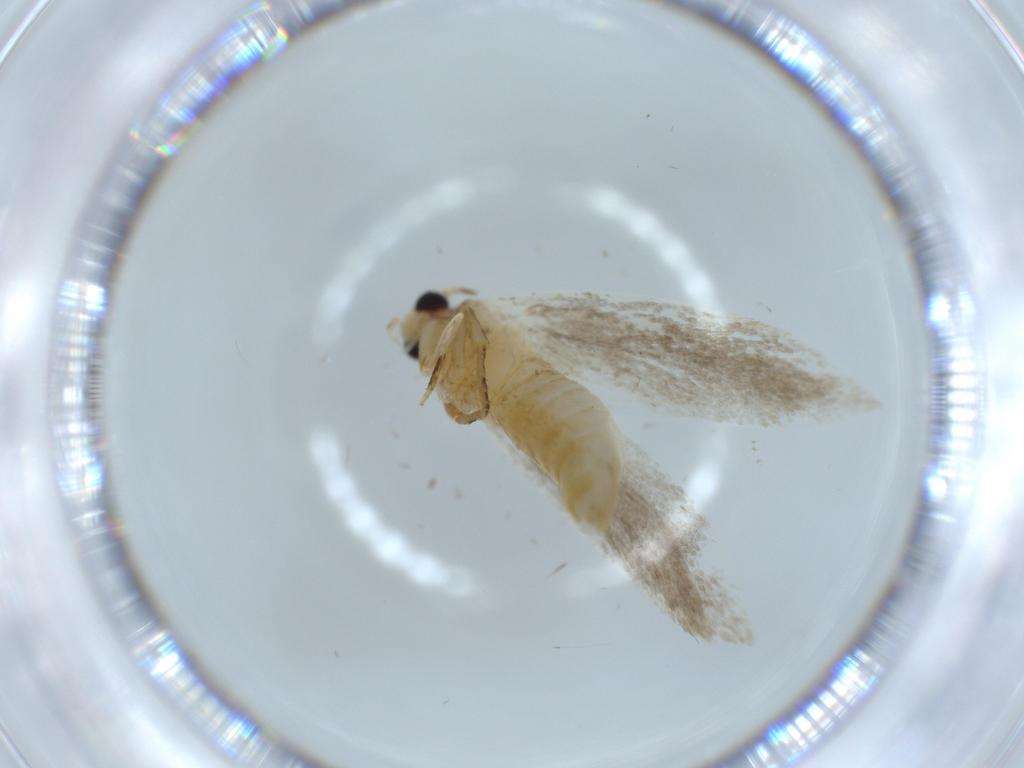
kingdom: Animalia
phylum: Arthropoda
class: Insecta
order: Lepidoptera
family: Tineidae
